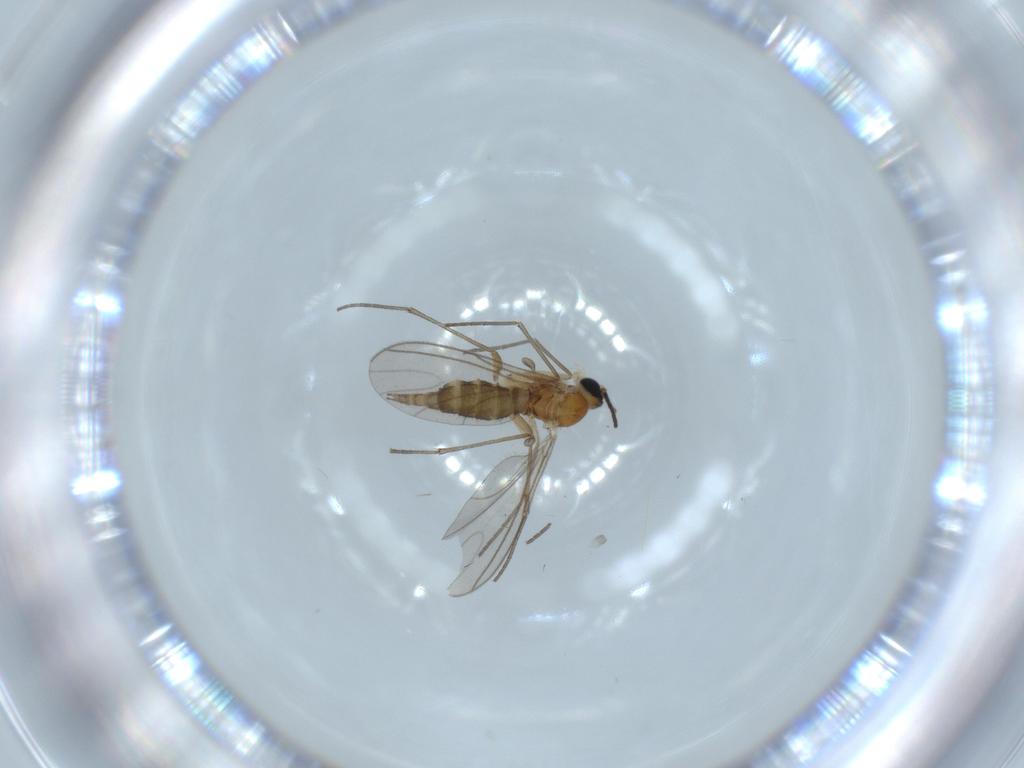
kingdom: Animalia
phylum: Arthropoda
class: Insecta
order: Diptera
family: Sciaridae
